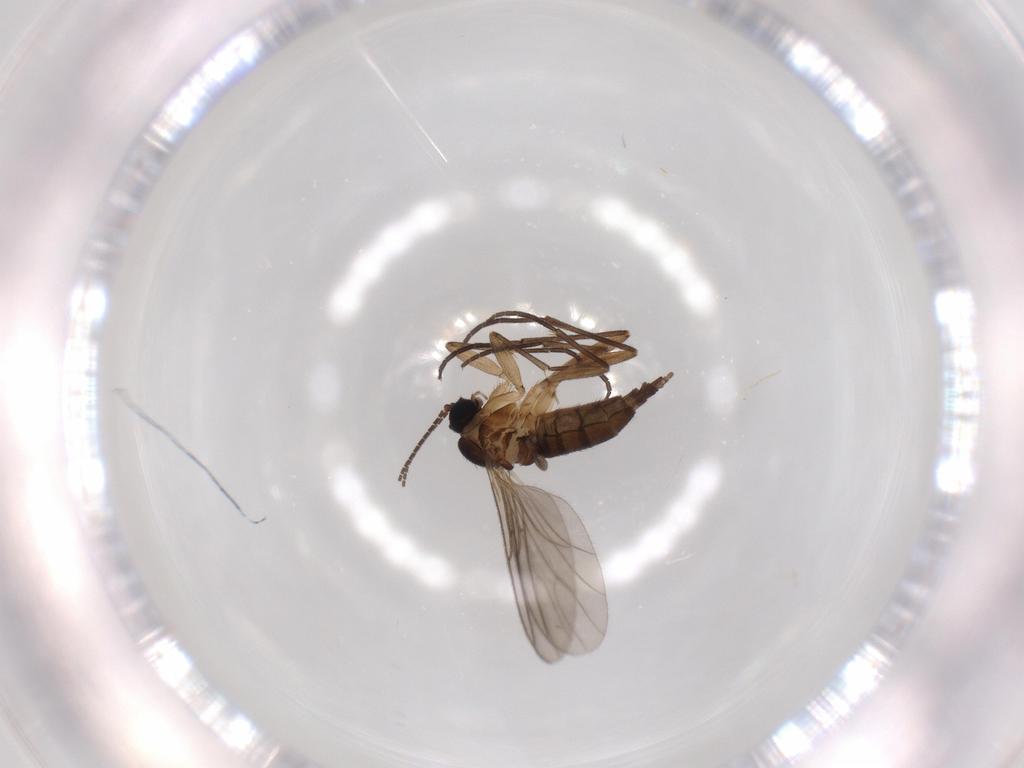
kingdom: Animalia
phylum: Arthropoda
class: Insecta
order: Diptera
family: Sciaridae
